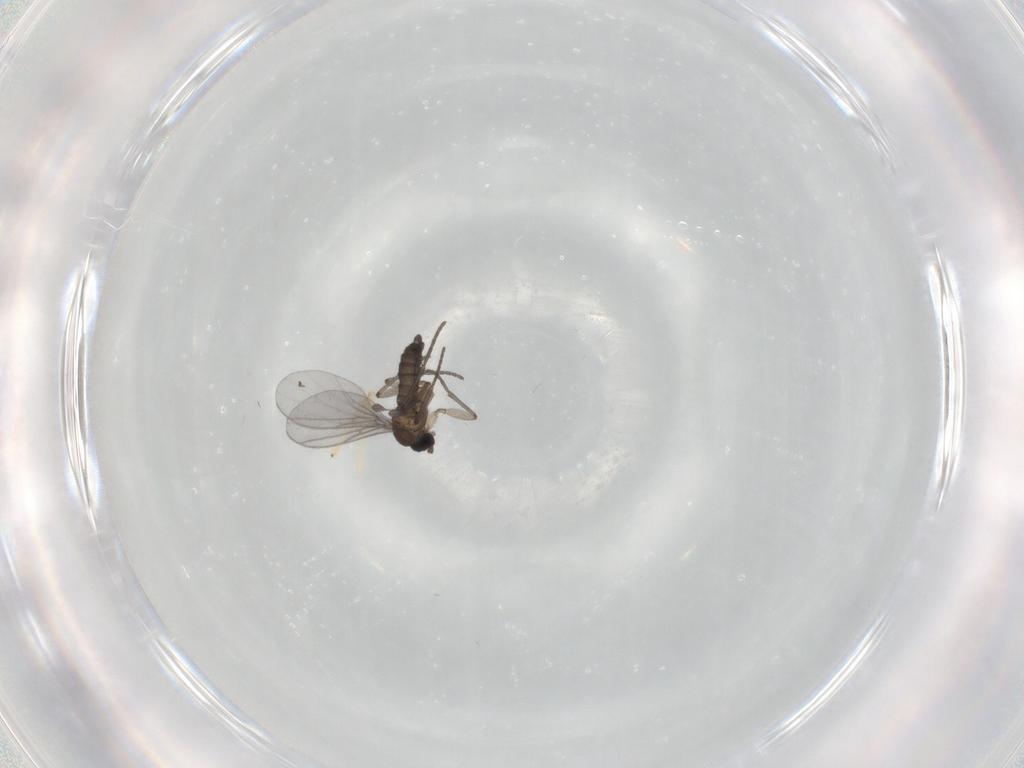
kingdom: Animalia
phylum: Arthropoda
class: Insecta
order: Diptera
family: Cecidomyiidae
